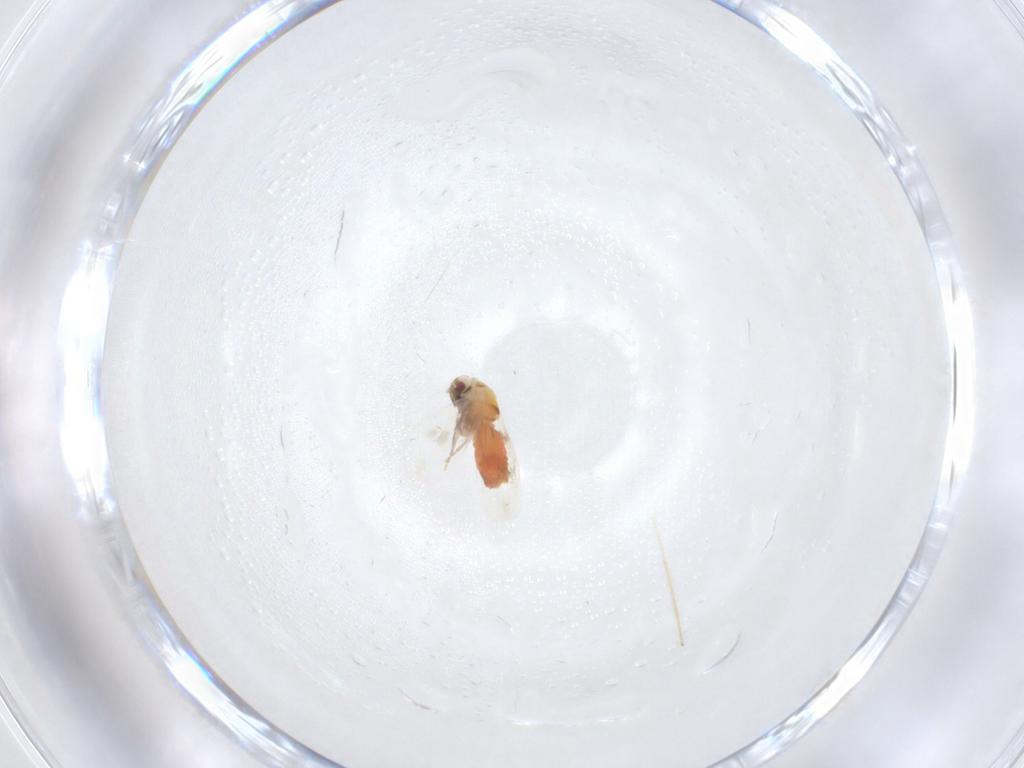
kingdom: Animalia
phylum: Arthropoda
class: Insecta
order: Hemiptera
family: Aleyrodidae
